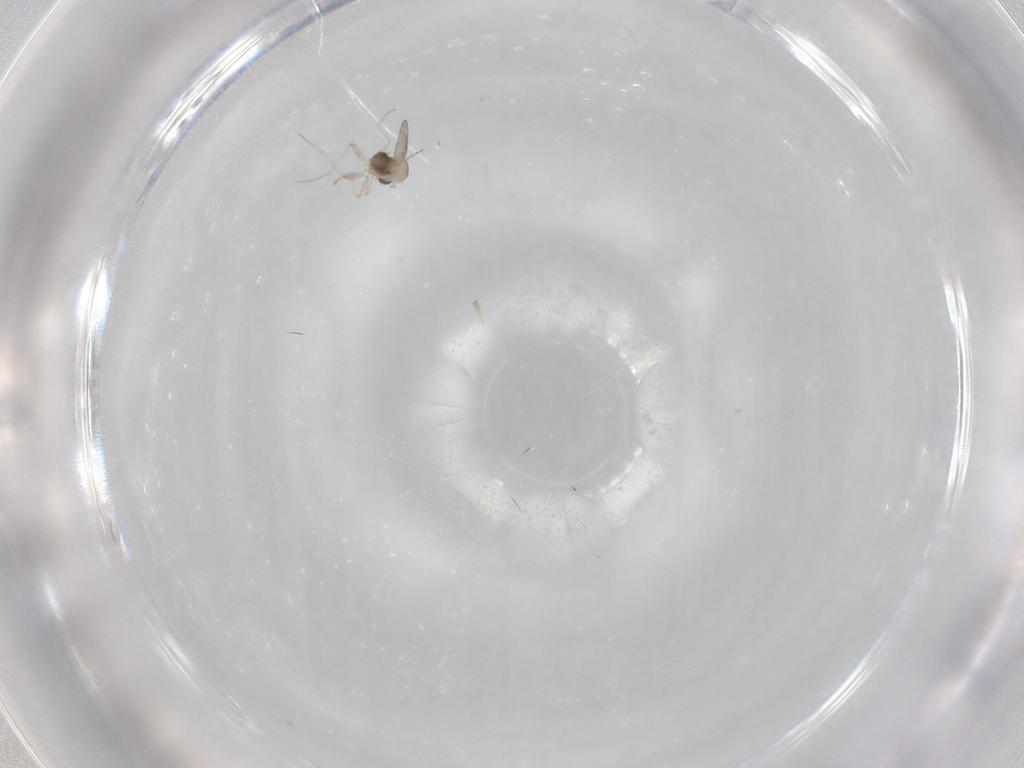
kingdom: Animalia
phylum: Arthropoda
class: Insecta
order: Diptera
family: Cecidomyiidae
